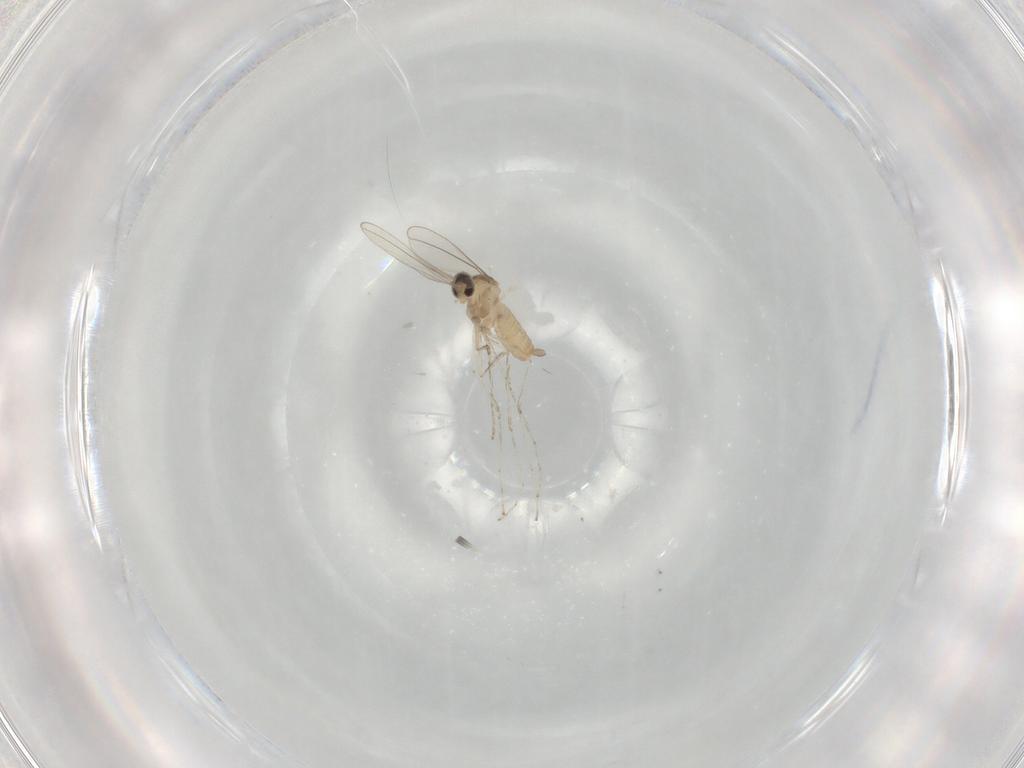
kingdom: Animalia
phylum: Arthropoda
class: Insecta
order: Diptera
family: Cecidomyiidae
